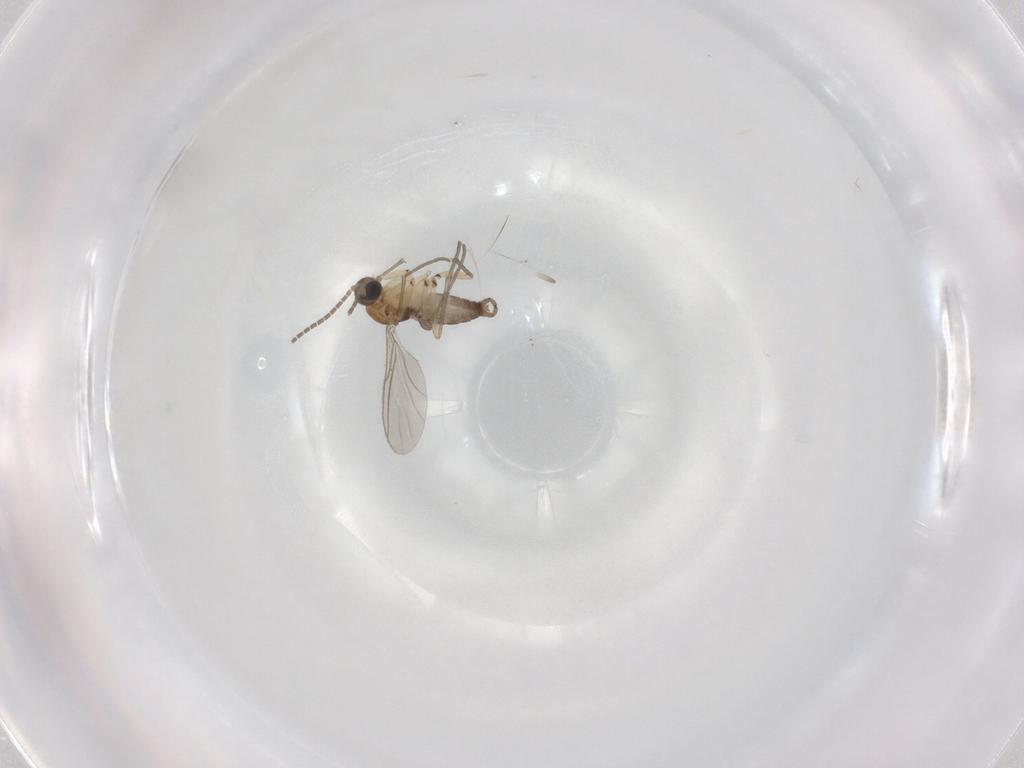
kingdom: Animalia
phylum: Arthropoda
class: Insecta
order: Diptera
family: Sciaridae
